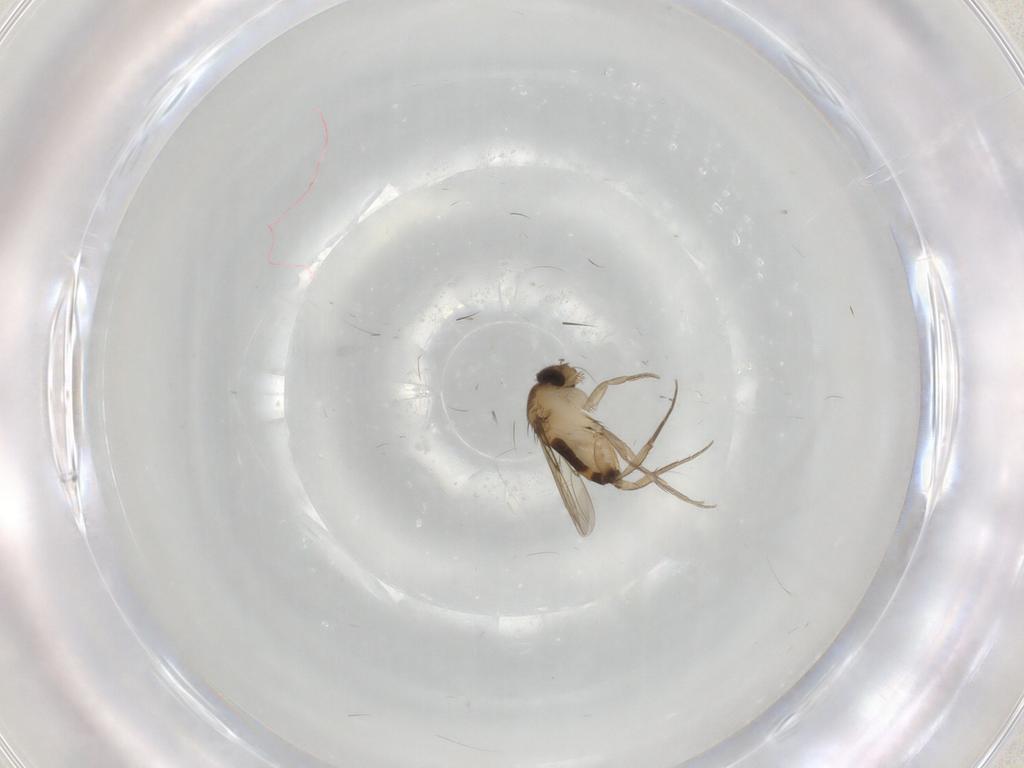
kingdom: Animalia
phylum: Arthropoda
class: Insecta
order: Diptera
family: Phoridae
